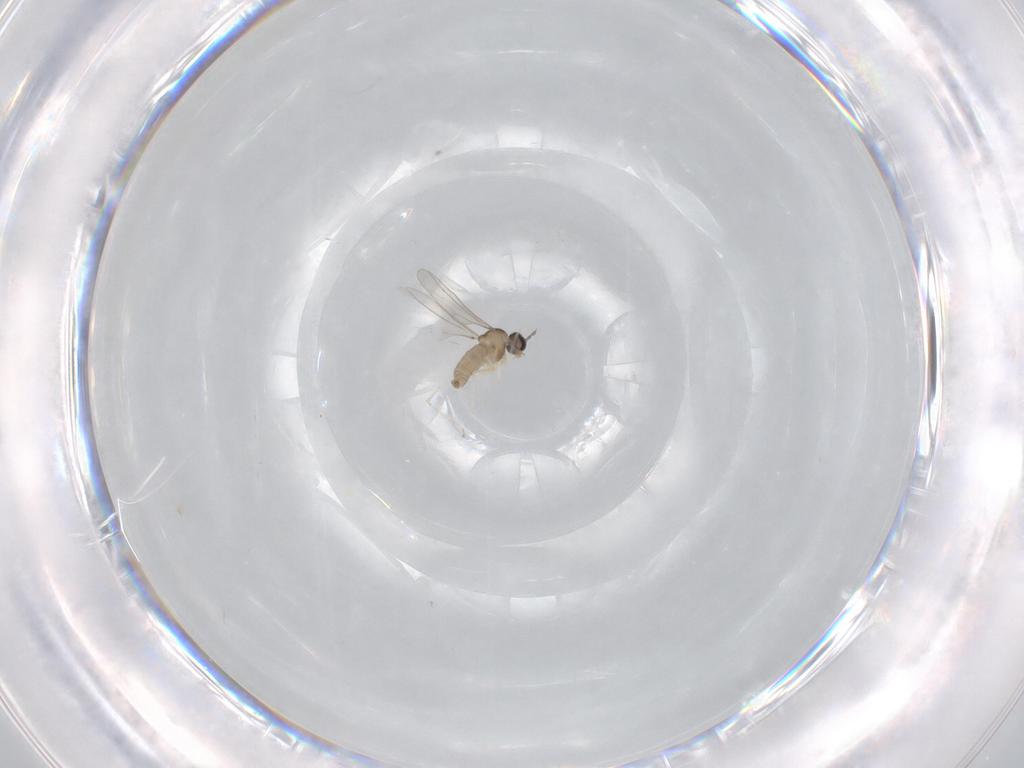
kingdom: Animalia
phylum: Arthropoda
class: Insecta
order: Diptera
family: Cecidomyiidae
